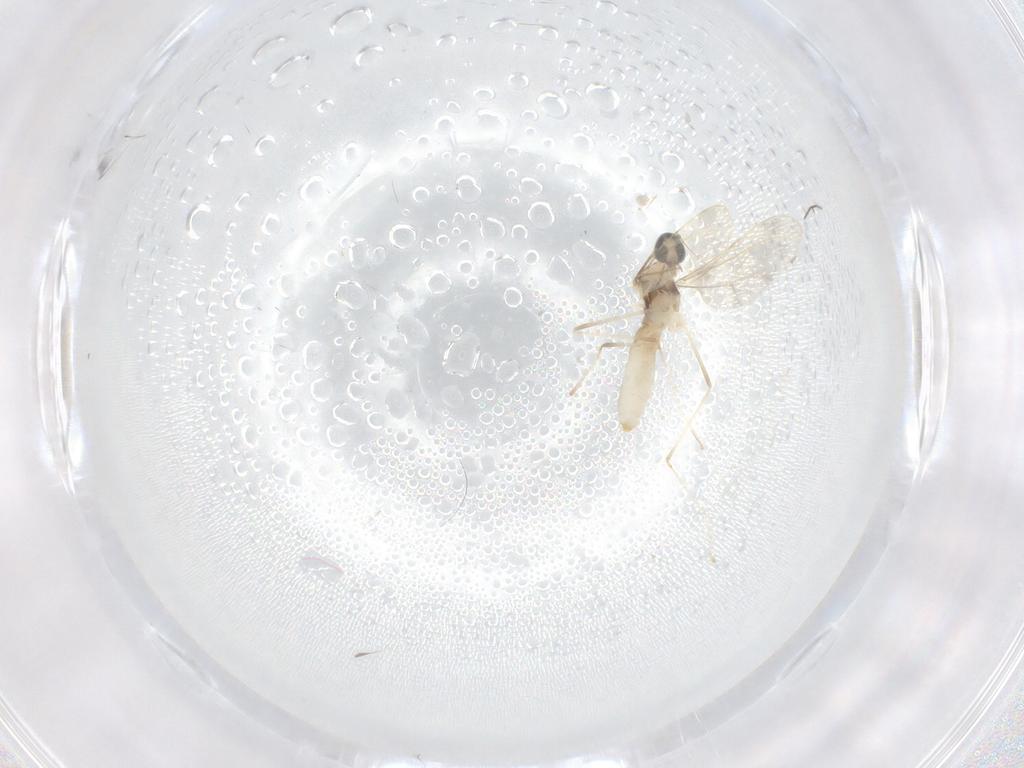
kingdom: Animalia
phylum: Arthropoda
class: Insecta
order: Diptera
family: Cecidomyiidae
